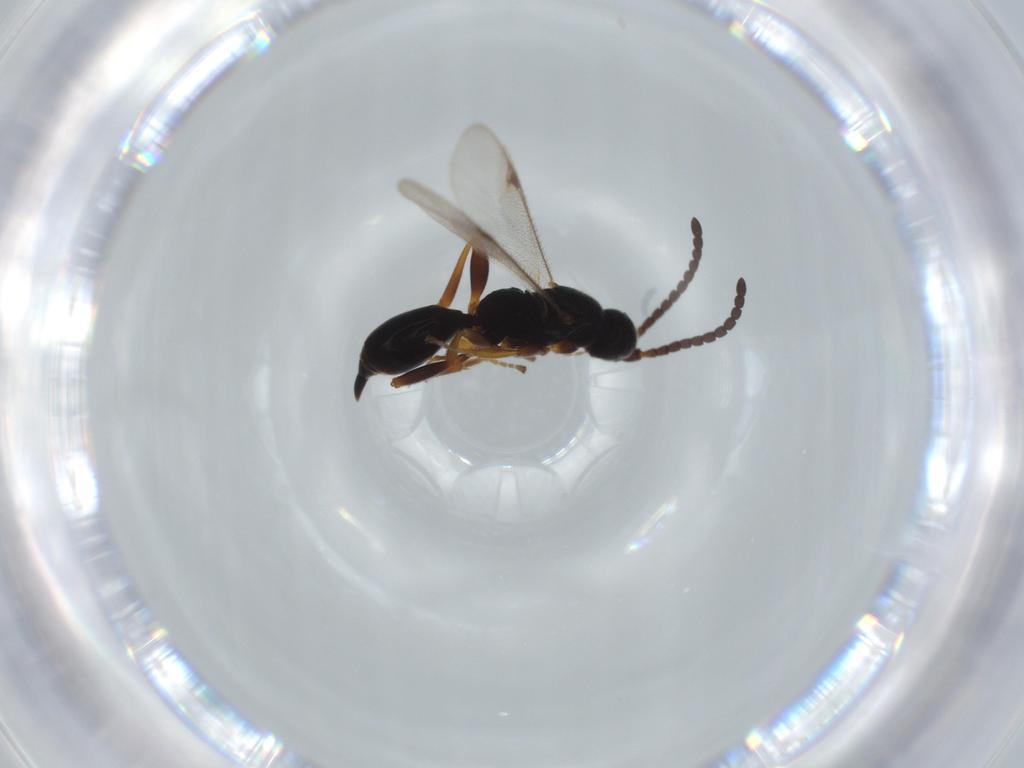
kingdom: Animalia
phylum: Arthropoda
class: Insecta
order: Hymenoptera
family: Proctotrupidae
